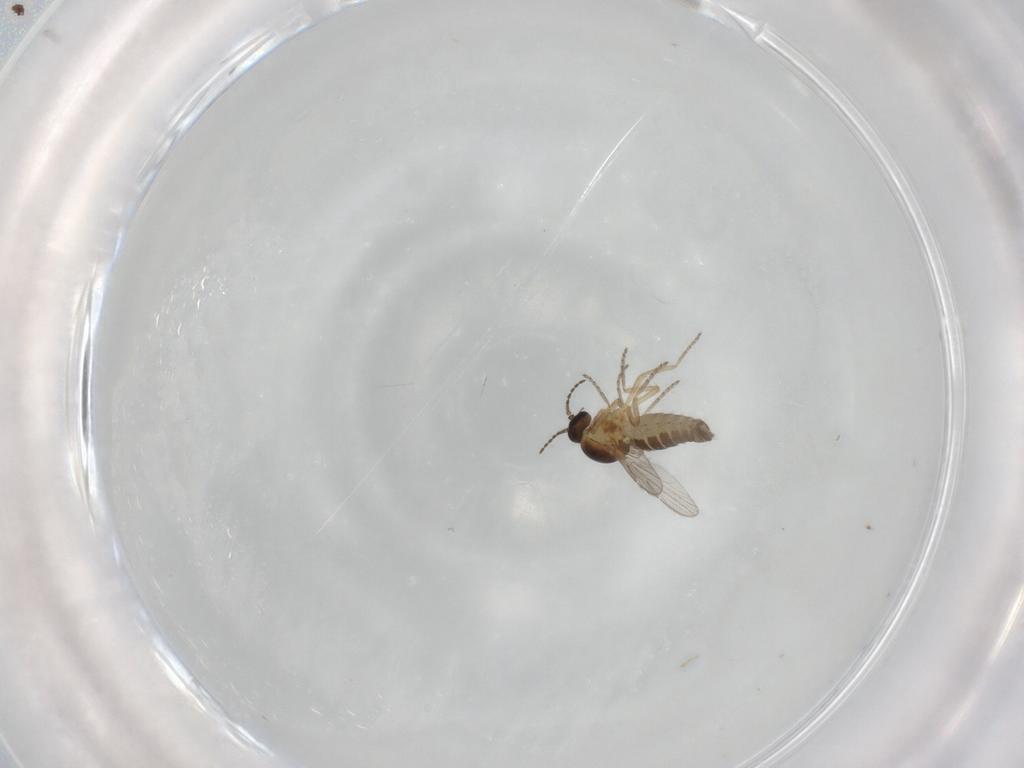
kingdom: Animalia
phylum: Arthropoda
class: Insecta
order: Diptera
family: Ceratopogonidae
